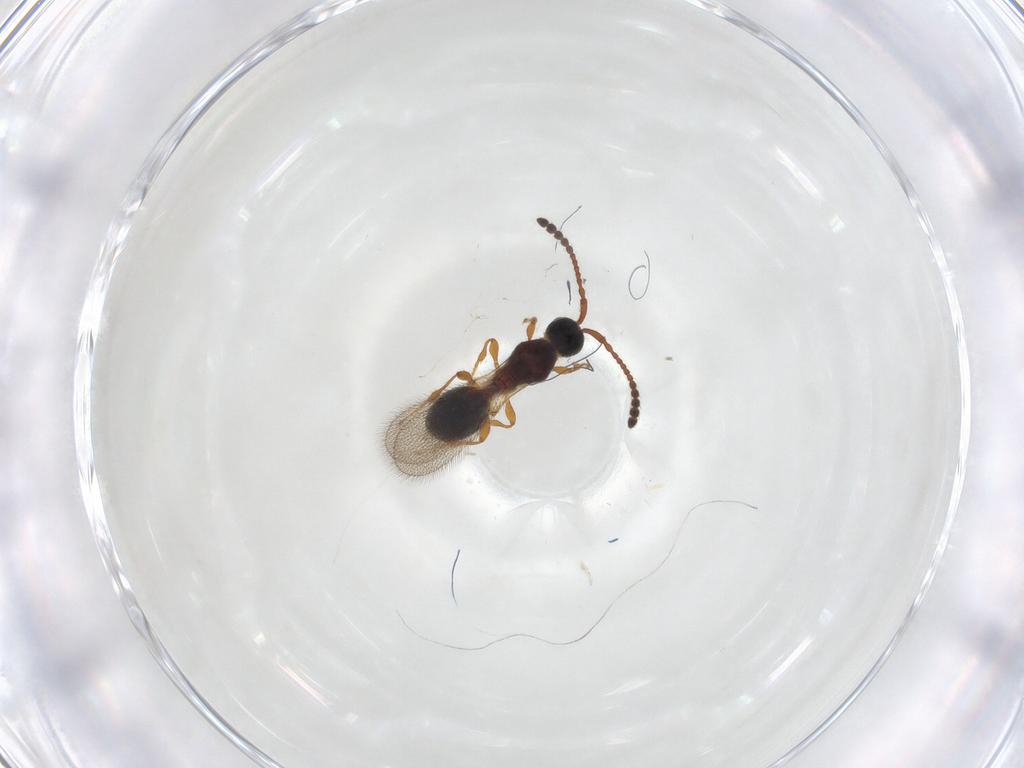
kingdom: Animalia
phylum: Arthropoda
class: Insecta
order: Hymenoptera
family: Diapriidae
